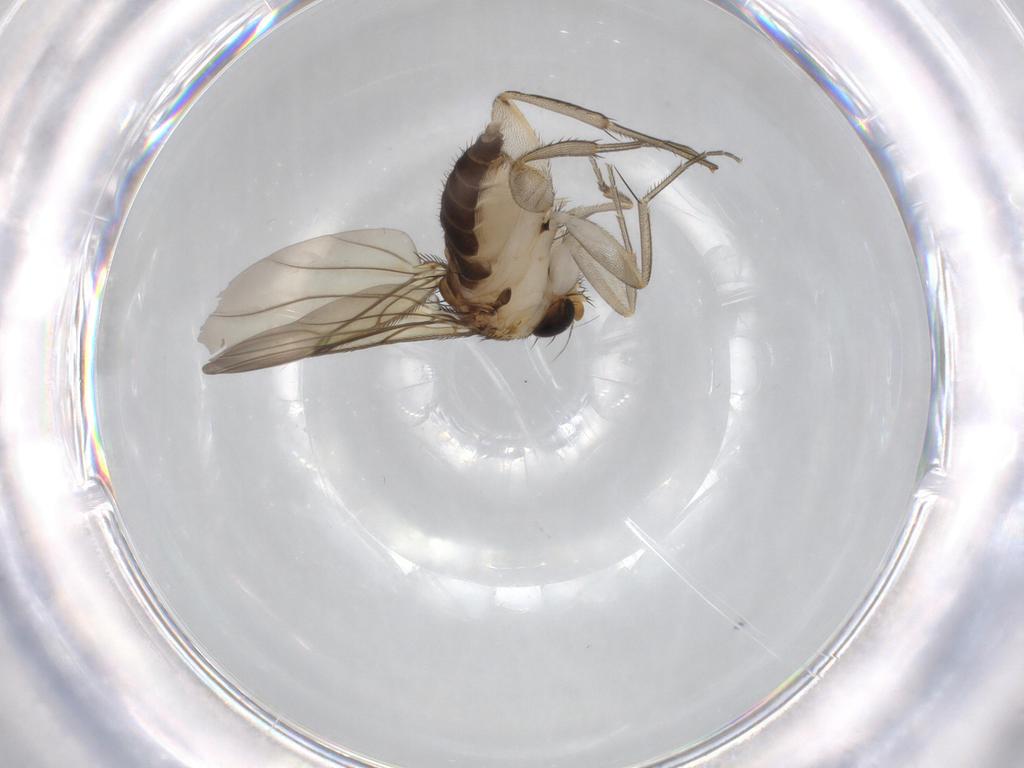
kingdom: Animalia
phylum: Arthropoda
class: Insecta
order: Diptera
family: Phoridae
